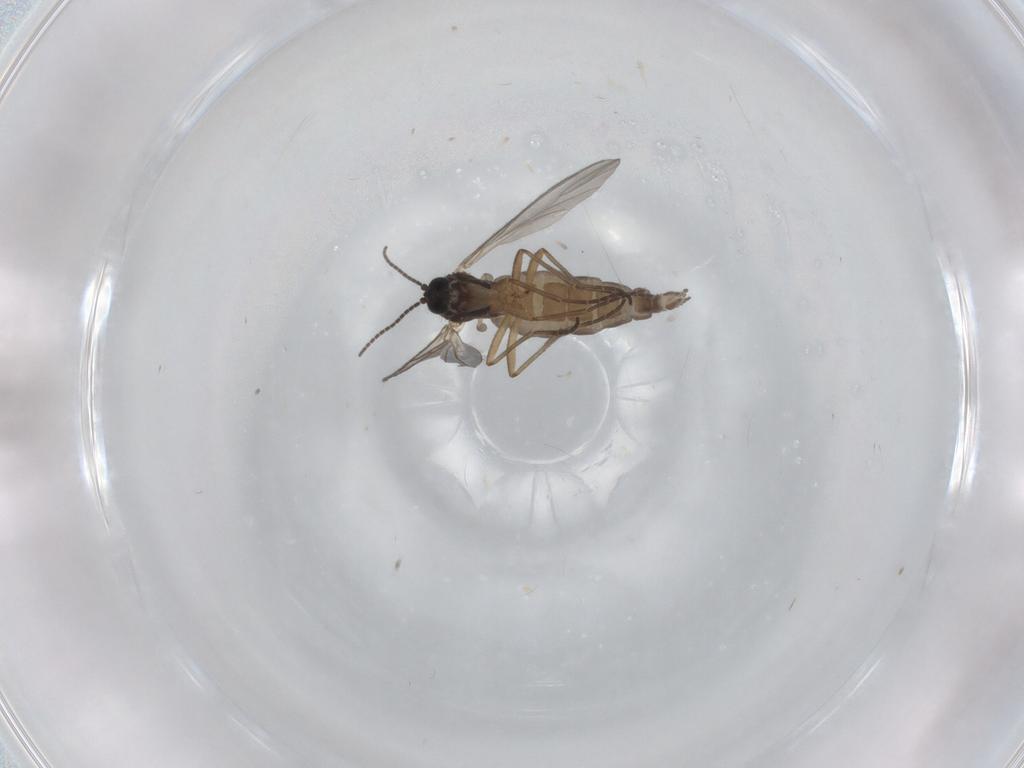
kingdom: Animalia
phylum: Arthropoda
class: Insecta
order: Diptera
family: Syrphidae
